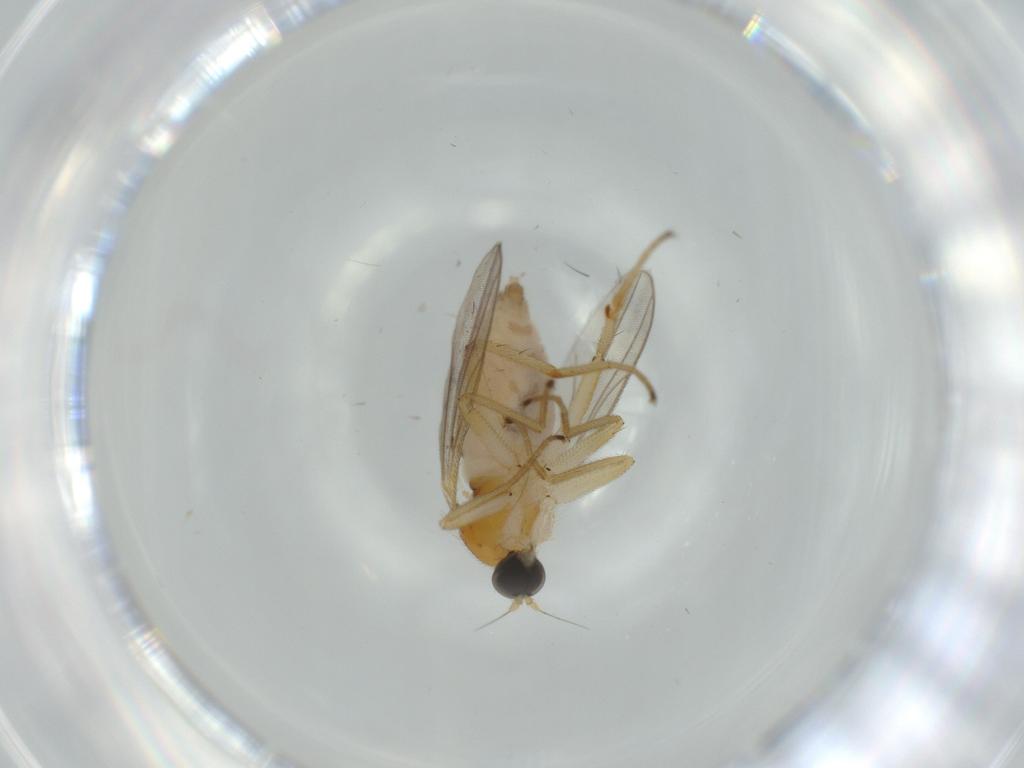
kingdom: Animalia
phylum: Arthropoda
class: Insecta
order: Diptera
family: Hybotidae
